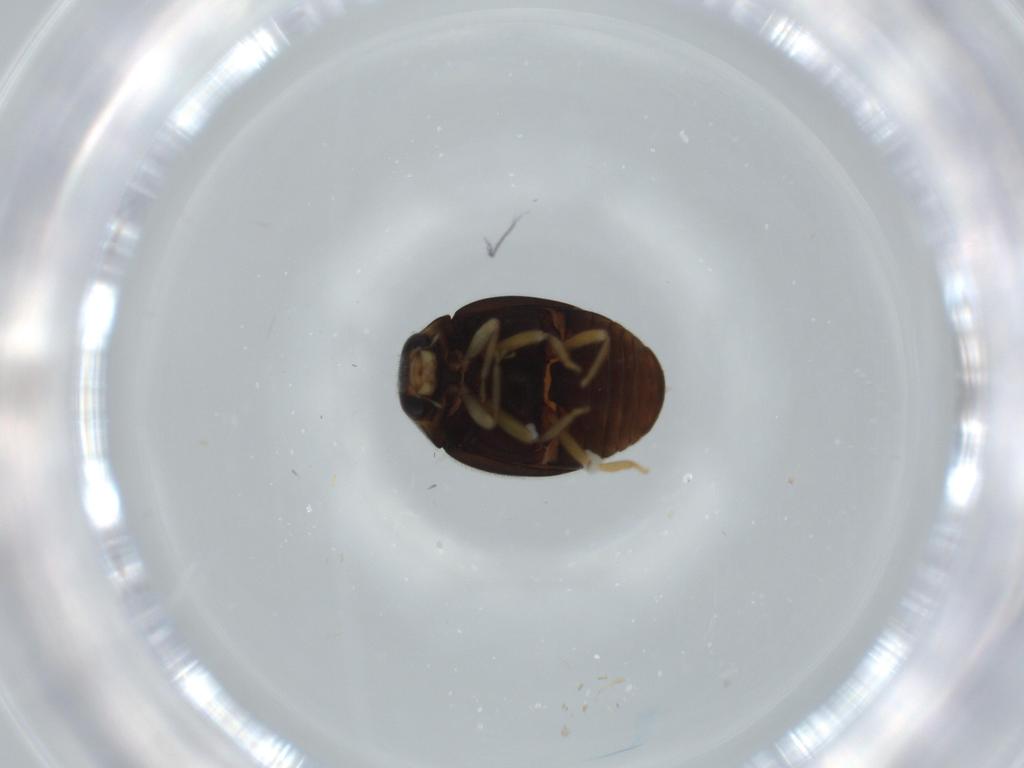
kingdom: Animalia
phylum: Arthropoda
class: Insecta
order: Coleoptera
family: Coccinellidae
